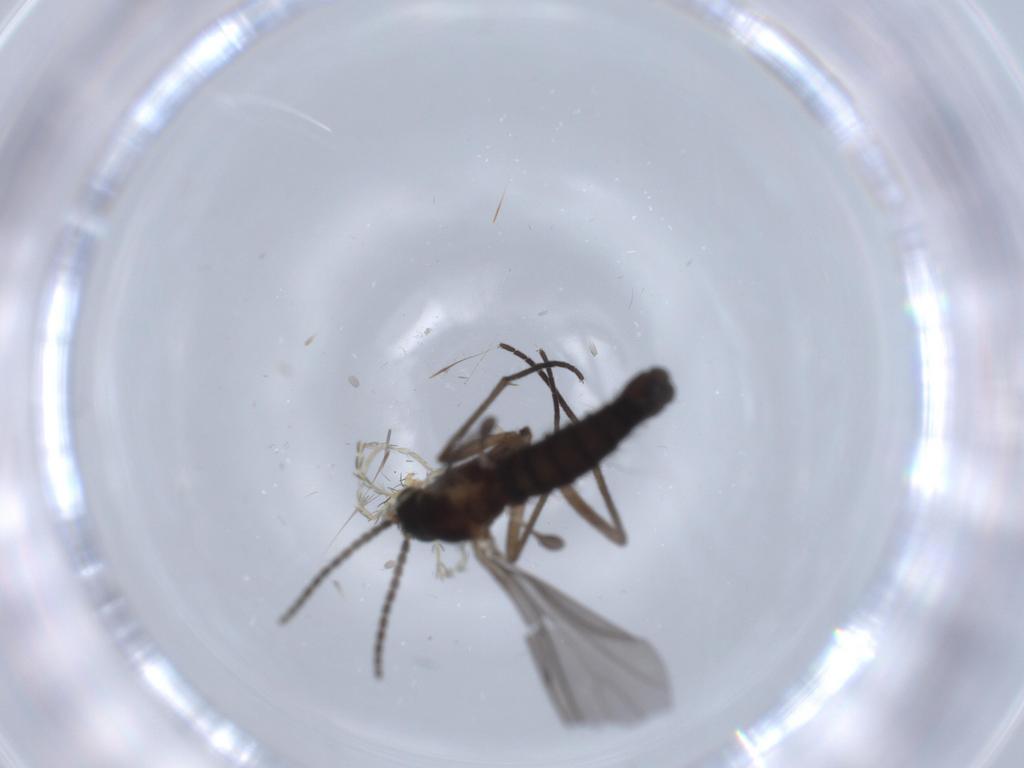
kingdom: Animalia
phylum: Arthropoda
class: Insecta
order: Diptera
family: Sciaridae
